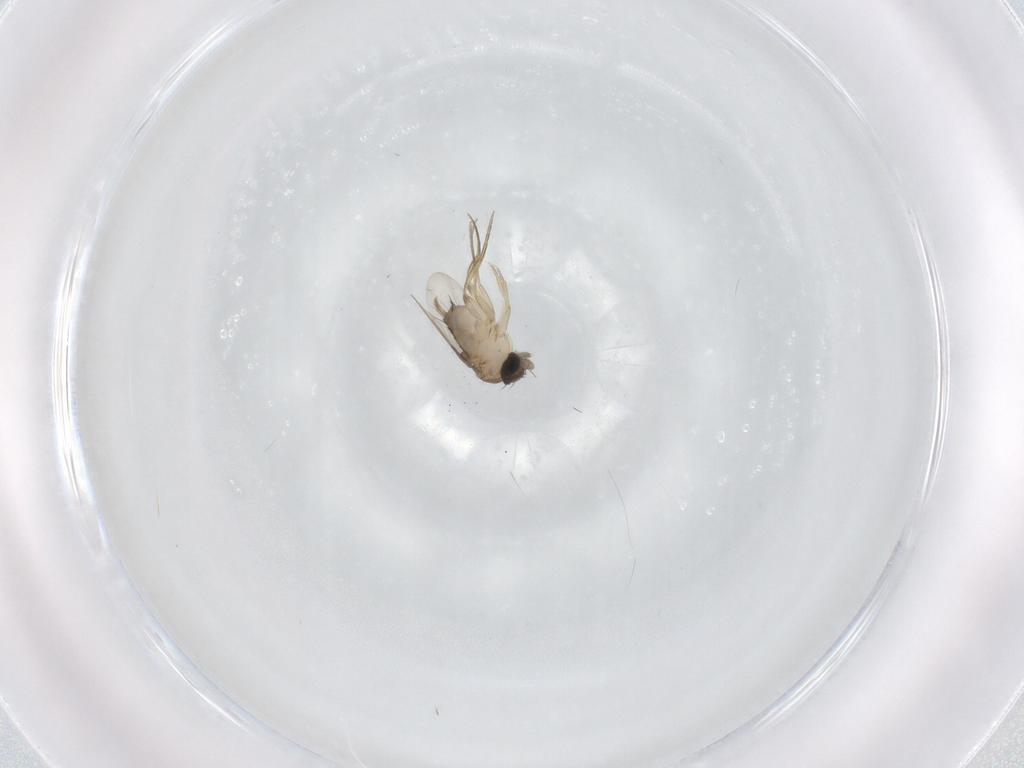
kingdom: Animalia
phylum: Arthropoda
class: Insecta
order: Diptera
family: Phoridae
